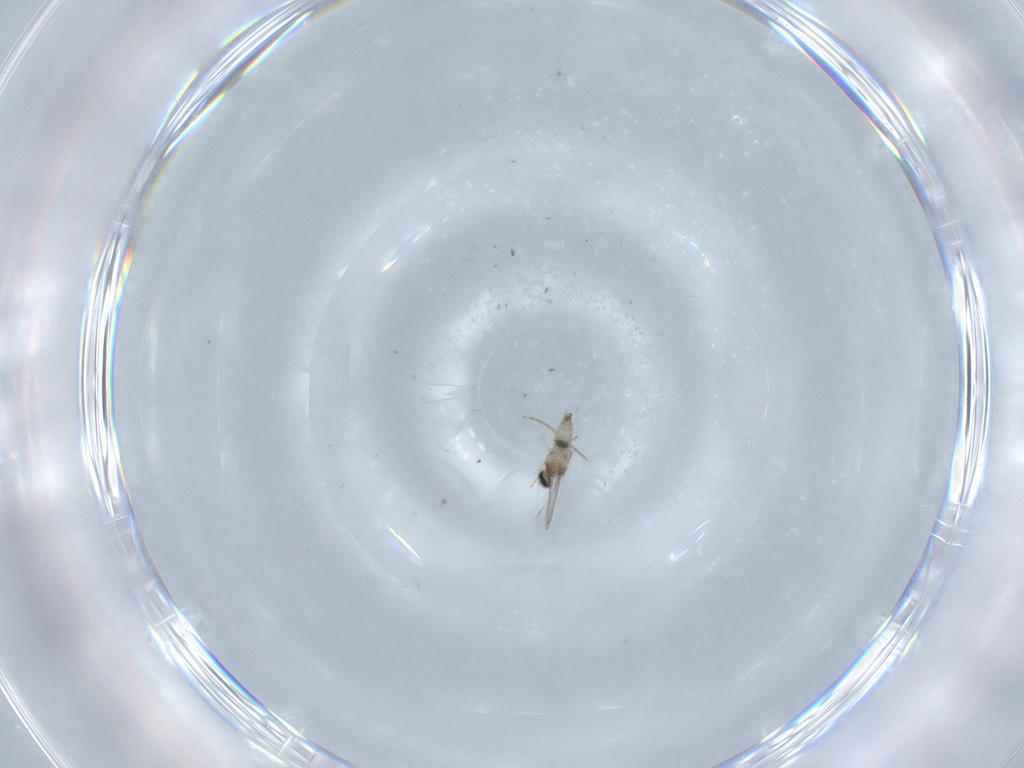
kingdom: Animalia
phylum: Arthropoda
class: Insecta
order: Diptera
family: Cecidomyiidae
